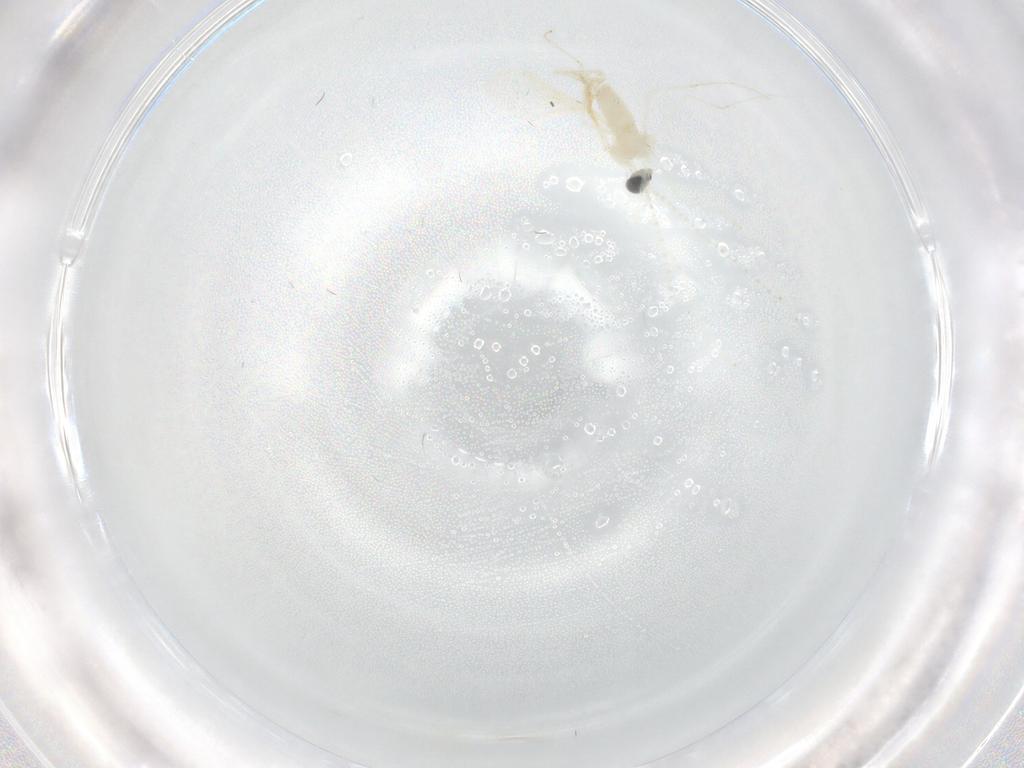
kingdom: Animalia
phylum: Arthropoda
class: Insecta
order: Diptera
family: Cecidomyiidae
